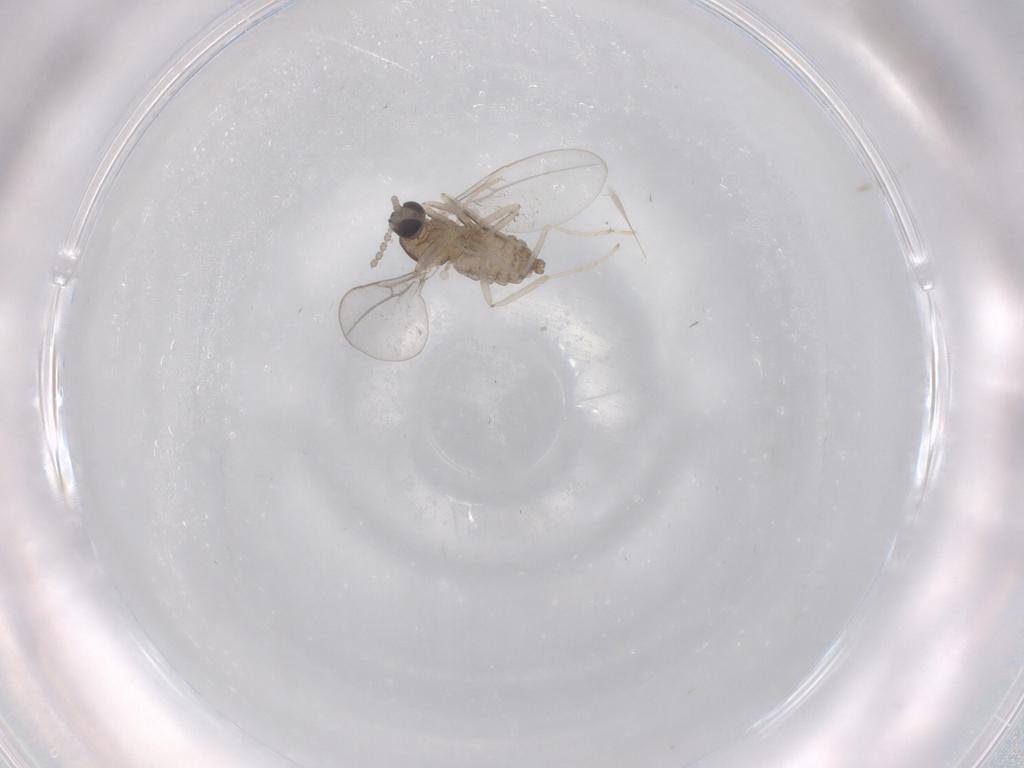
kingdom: Animalia
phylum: Arthropoda
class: Insecta
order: Diptera
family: Cecidomyiidae
